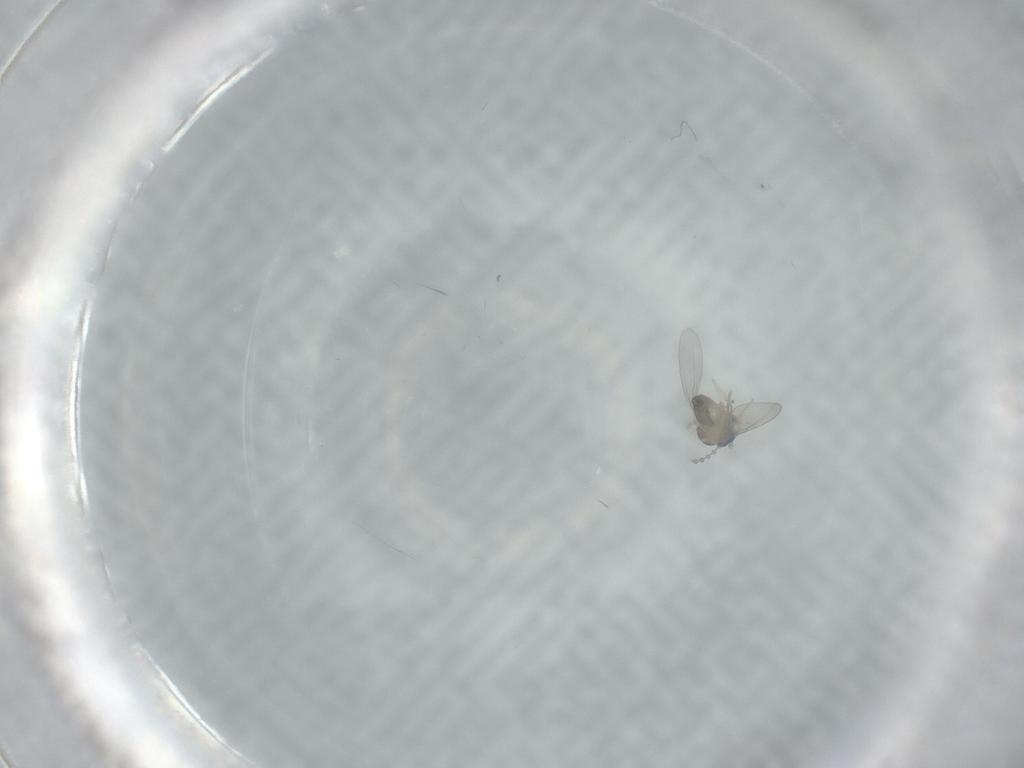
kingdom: Animalia
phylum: Arthropoda
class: Insecta
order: Diptera
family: Cecidomyiidae
